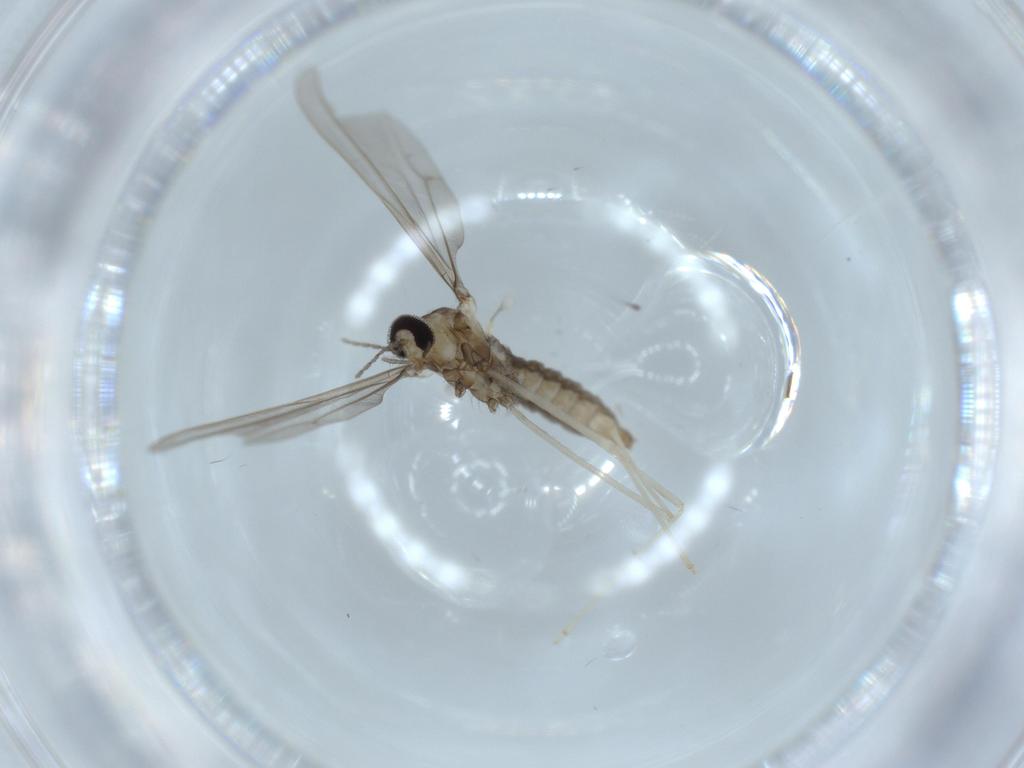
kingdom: Animalia
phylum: Arthropoda
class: Insecta
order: Diptera
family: Cecidomyiidae
